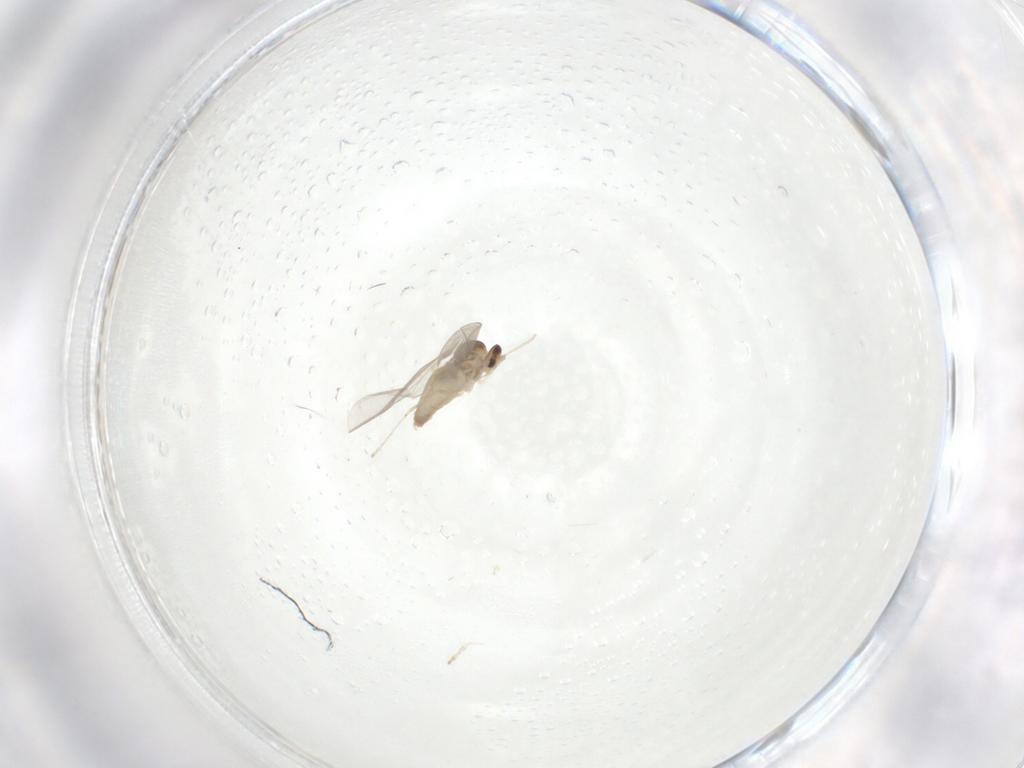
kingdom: Animalia
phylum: Arthropoda
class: Insecta
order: Diptera
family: Cecidomyiidae
